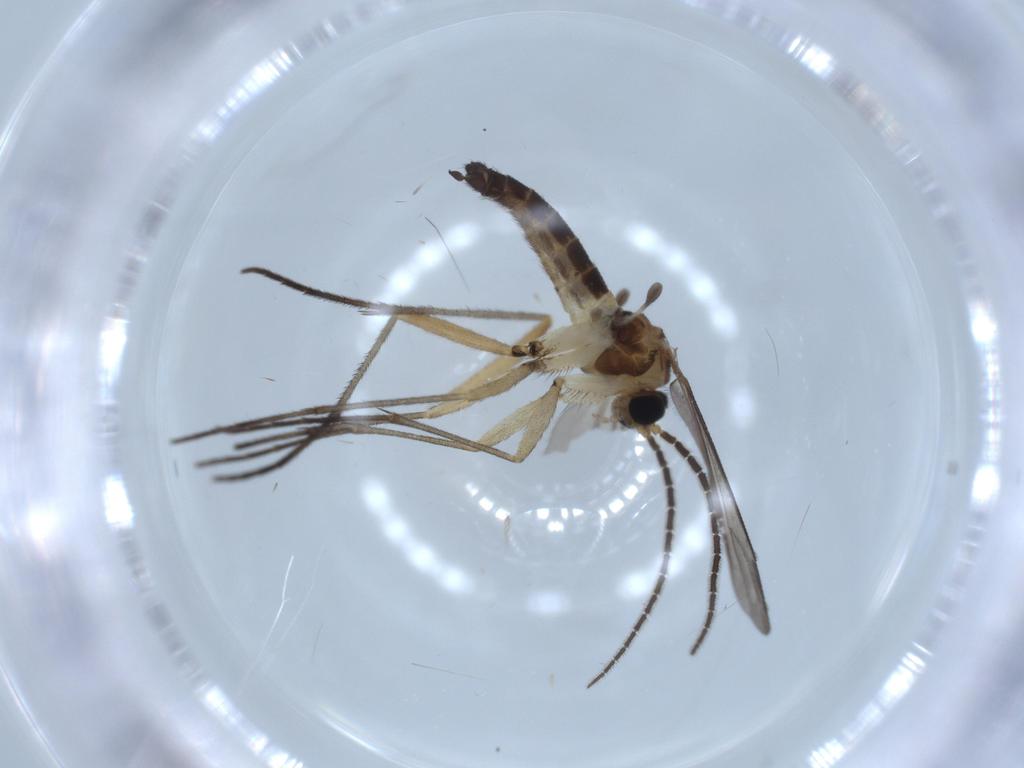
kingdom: Animalia
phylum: Arthropoda
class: Insecta
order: Diptera
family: Sciaridae
